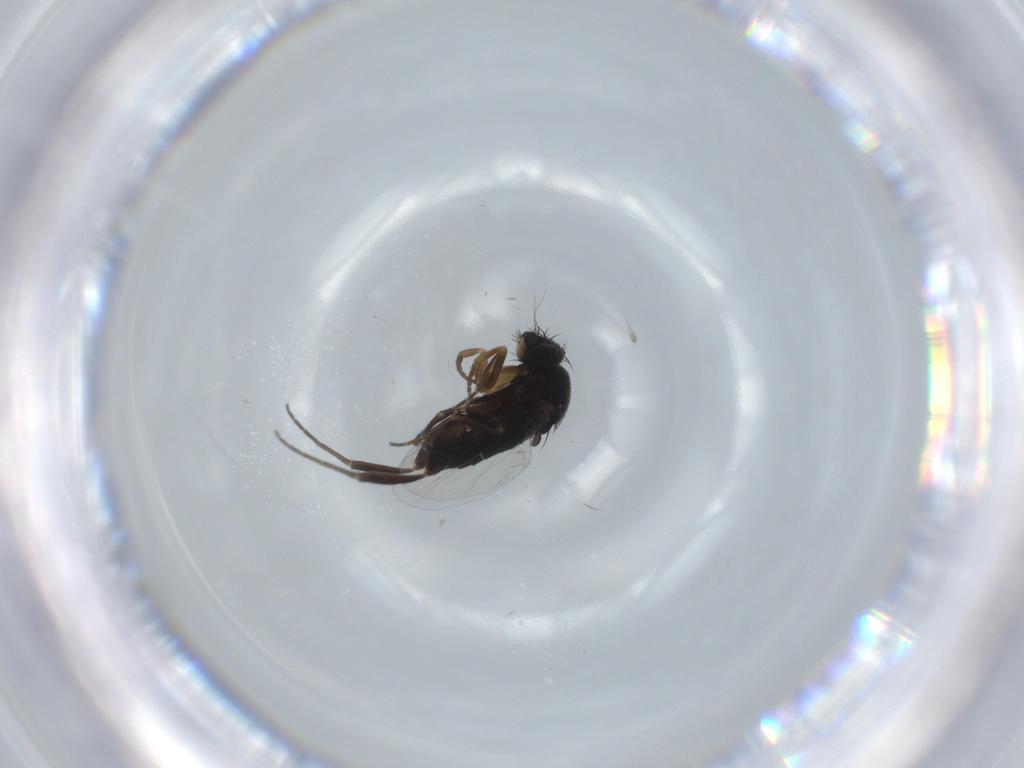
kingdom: Animalia
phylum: Arthropoda
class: Insecta
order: Diptera
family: Phoridae
